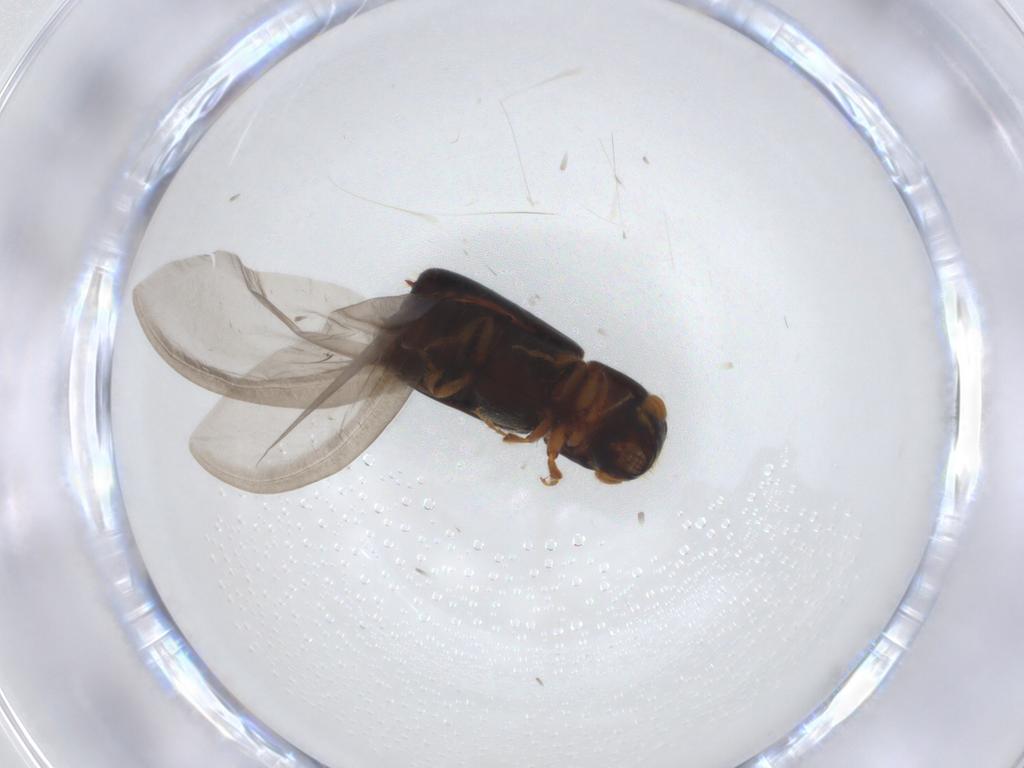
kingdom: Animalia
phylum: Arthropoda
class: Insecta
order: Coleoptera
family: Curculionidae
